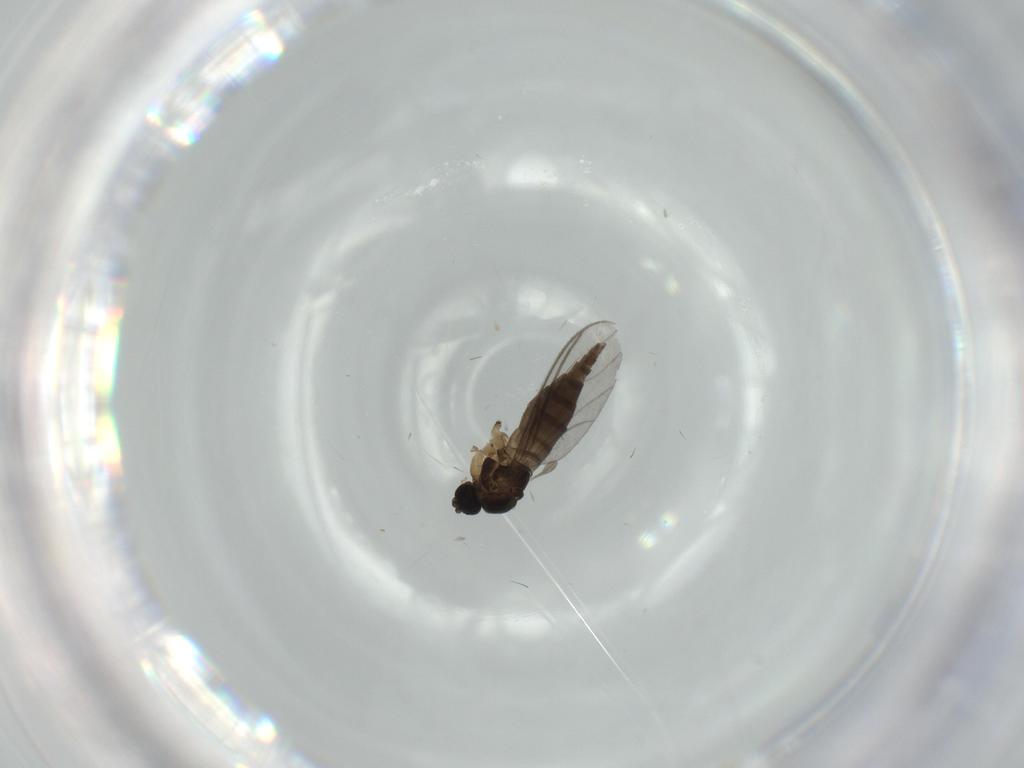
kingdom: Animalia
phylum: Arthropoda
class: Insecta
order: Diptera
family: Sciaridae
